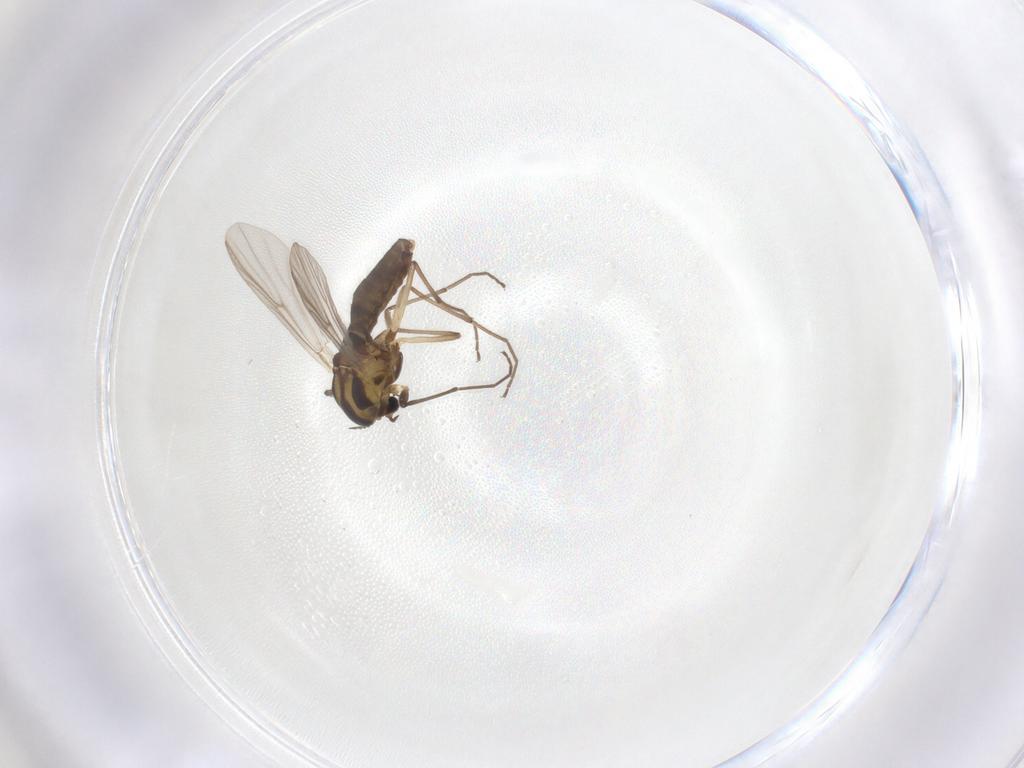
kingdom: Animalia
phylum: Arthropoda
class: Insecta
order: Diptera
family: Chironomidae
